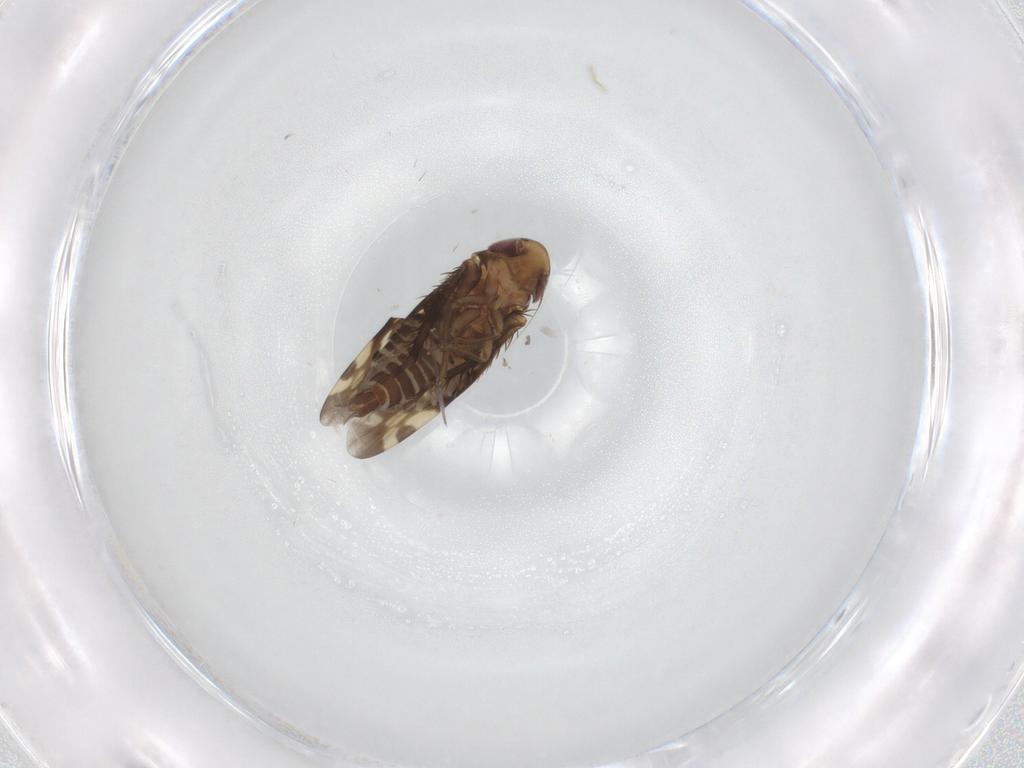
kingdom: Animalia
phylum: Arthropoda
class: Insecta
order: Hemiptera
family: Cicadellidae
